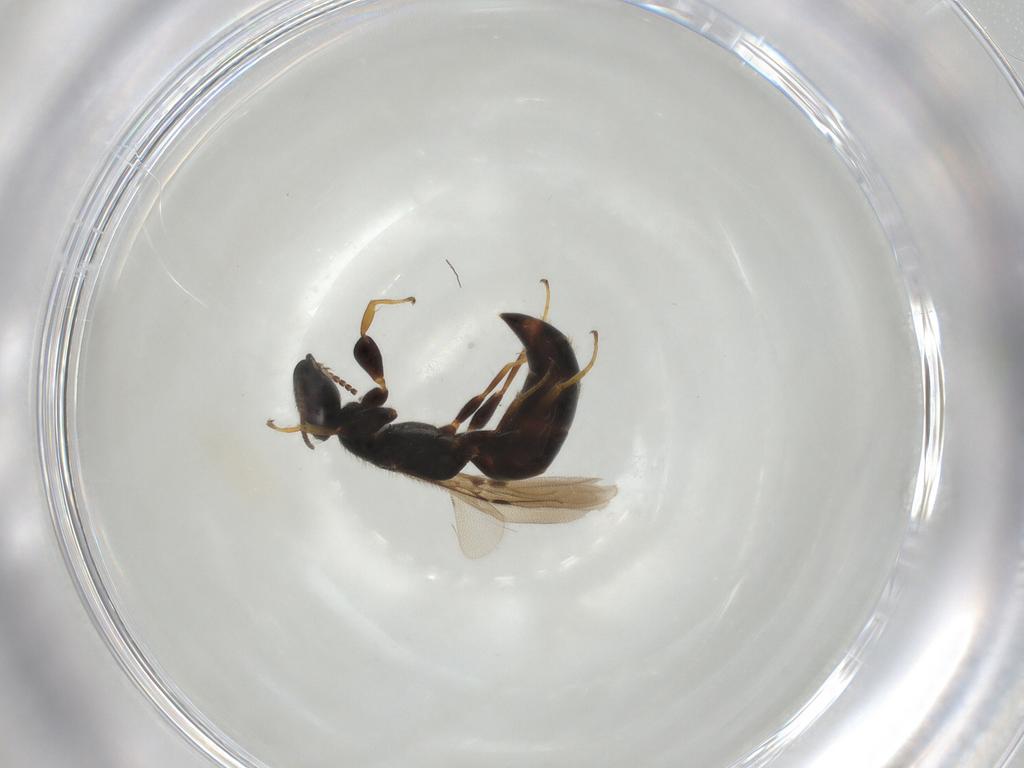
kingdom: Animalia
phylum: Arthropoda
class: Insecta
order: Hymenoptera
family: Bethylidae
